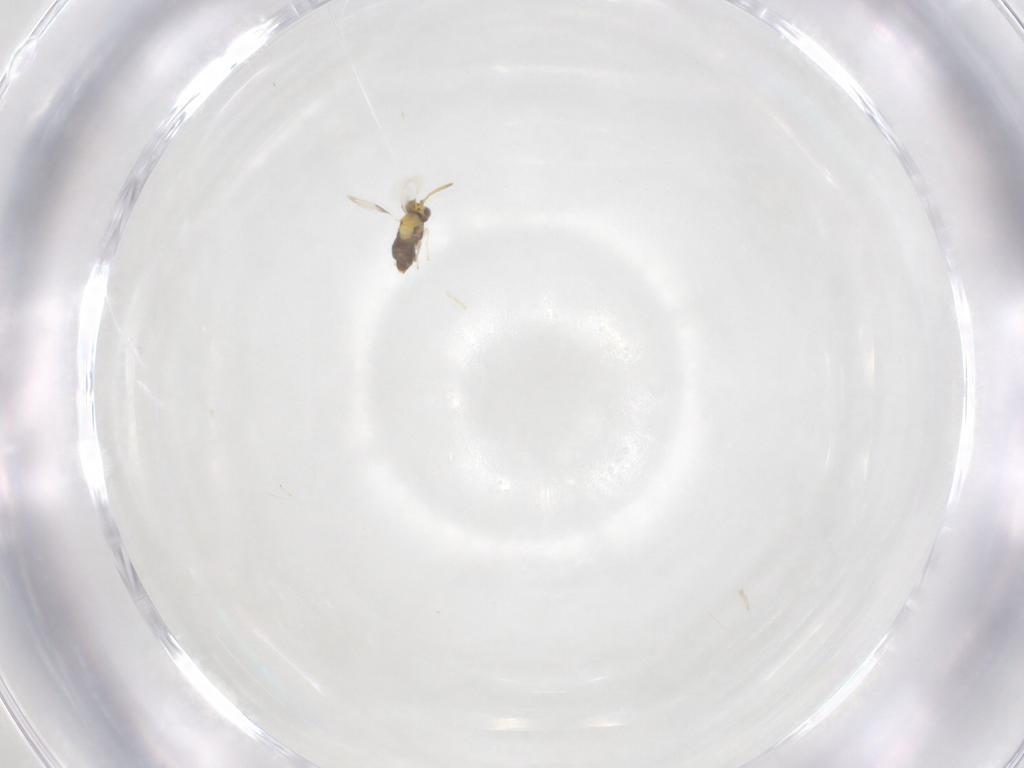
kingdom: Animalia
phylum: Arthropoda
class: Insecta
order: Hymenoptera
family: Aphelinidae
